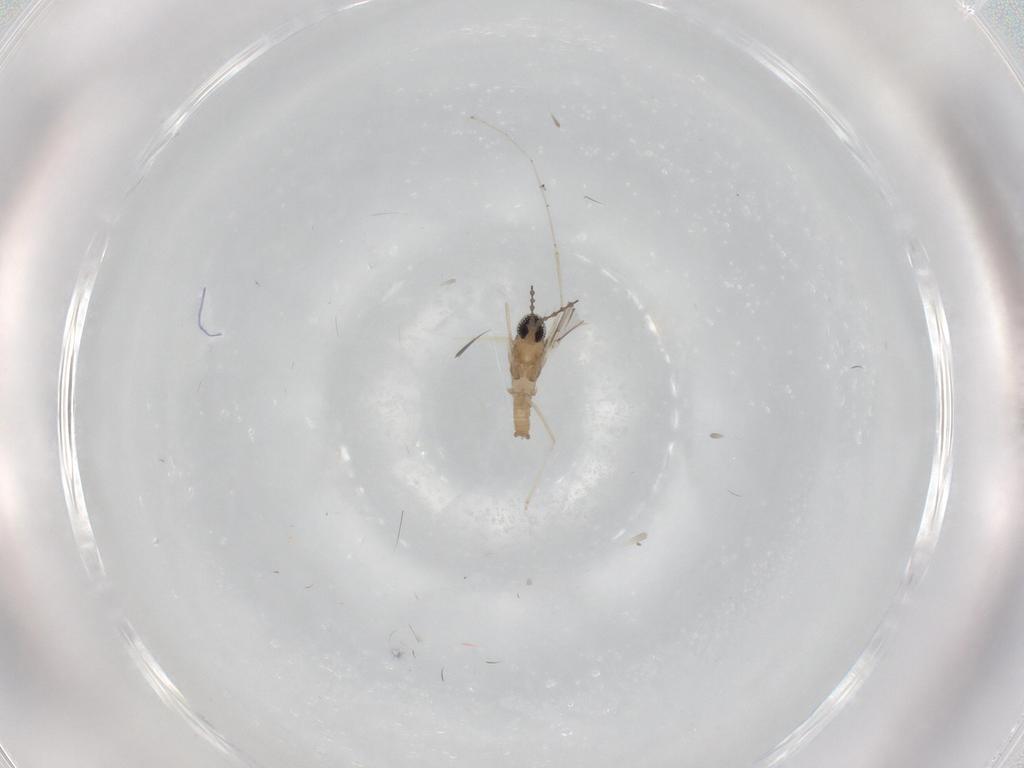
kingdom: Animalia
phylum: Arthropoda
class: Insecta
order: Diptera
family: Cecidomyiidae
